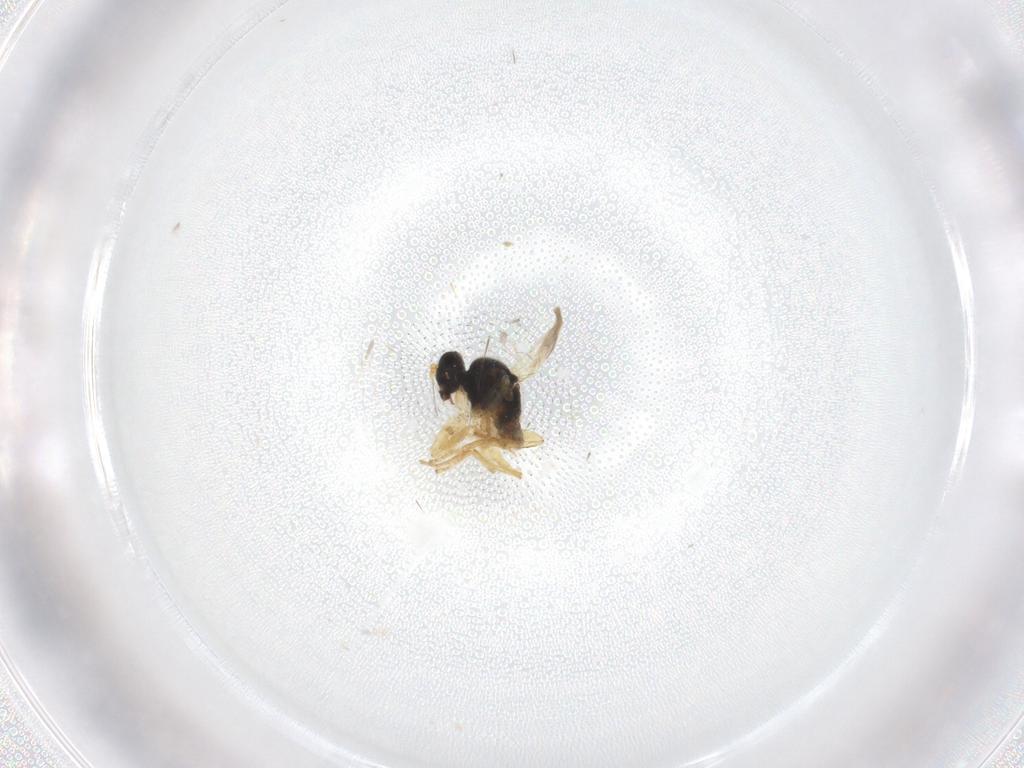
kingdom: Animalia
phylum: Arthropoda
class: Insecta
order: Diptera
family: Hybotidae
